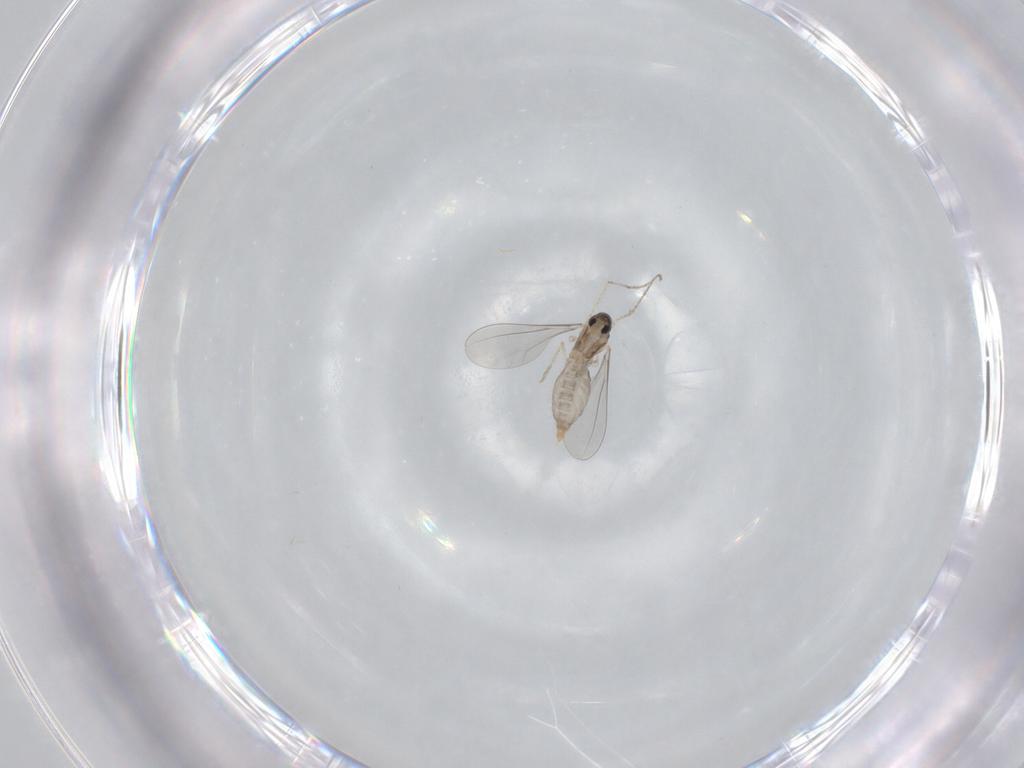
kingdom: Animalia
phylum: Arthropoda
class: Insecta
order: Diptera
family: Cecidomyiidae
